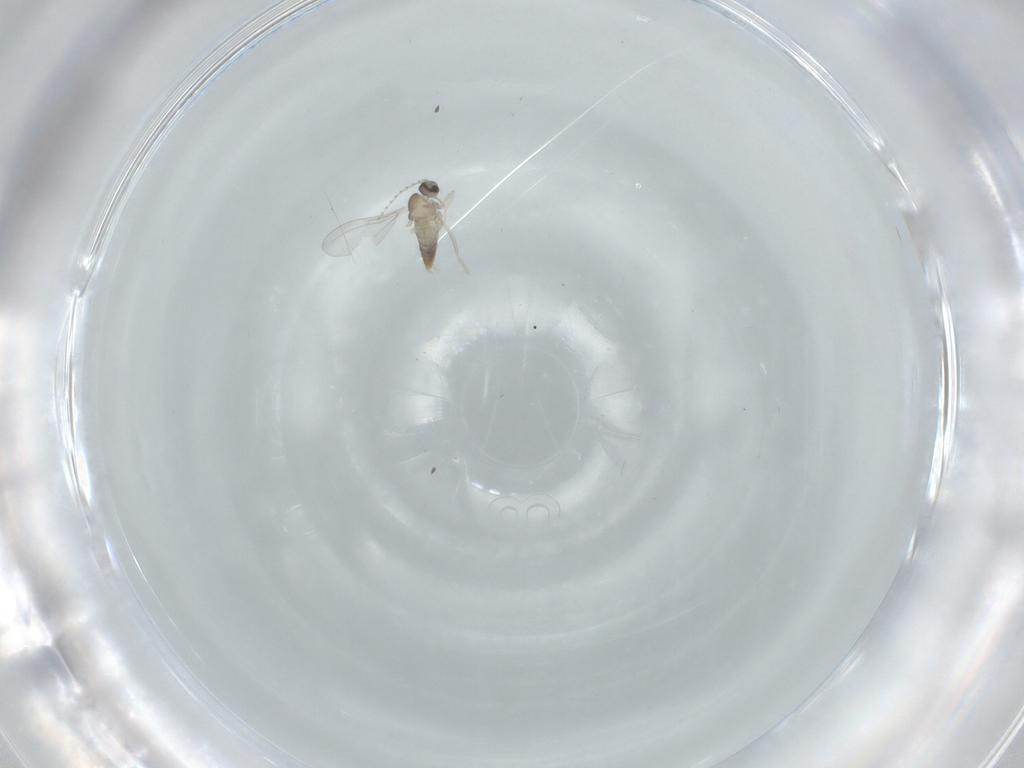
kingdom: Animalia
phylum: Arthropoda
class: Insecta
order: Diptera
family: Cecidomyiidae
